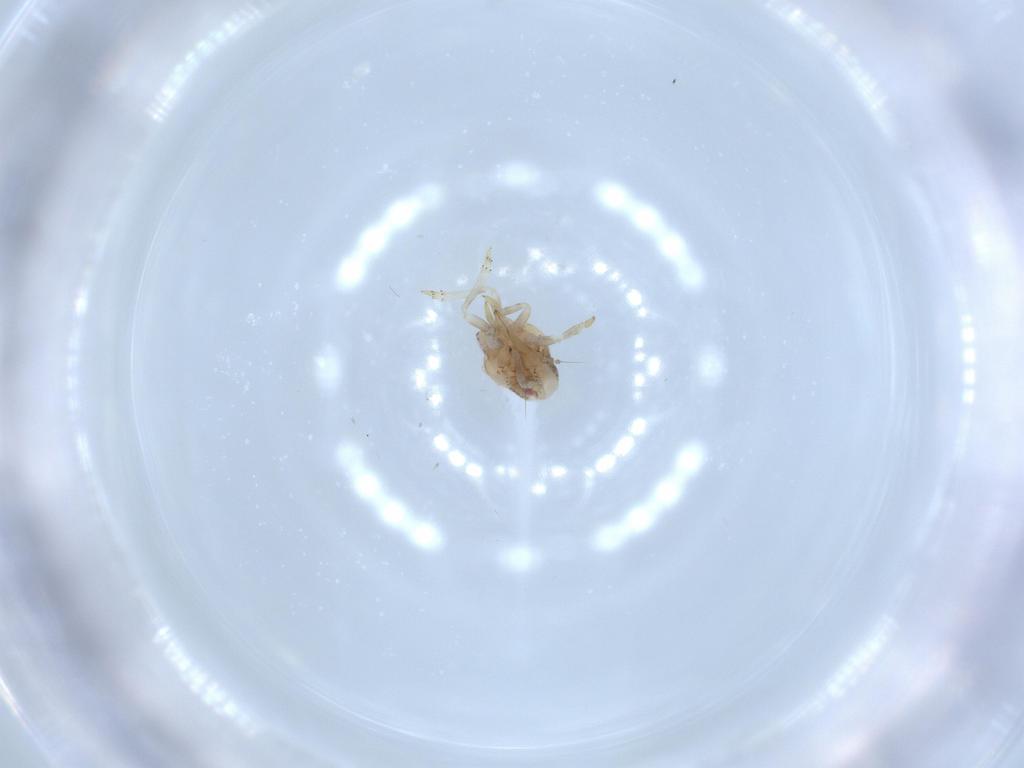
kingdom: Animalia
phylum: Arthropoda
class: Insecta
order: Hemiptera
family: Acanaloniidae
